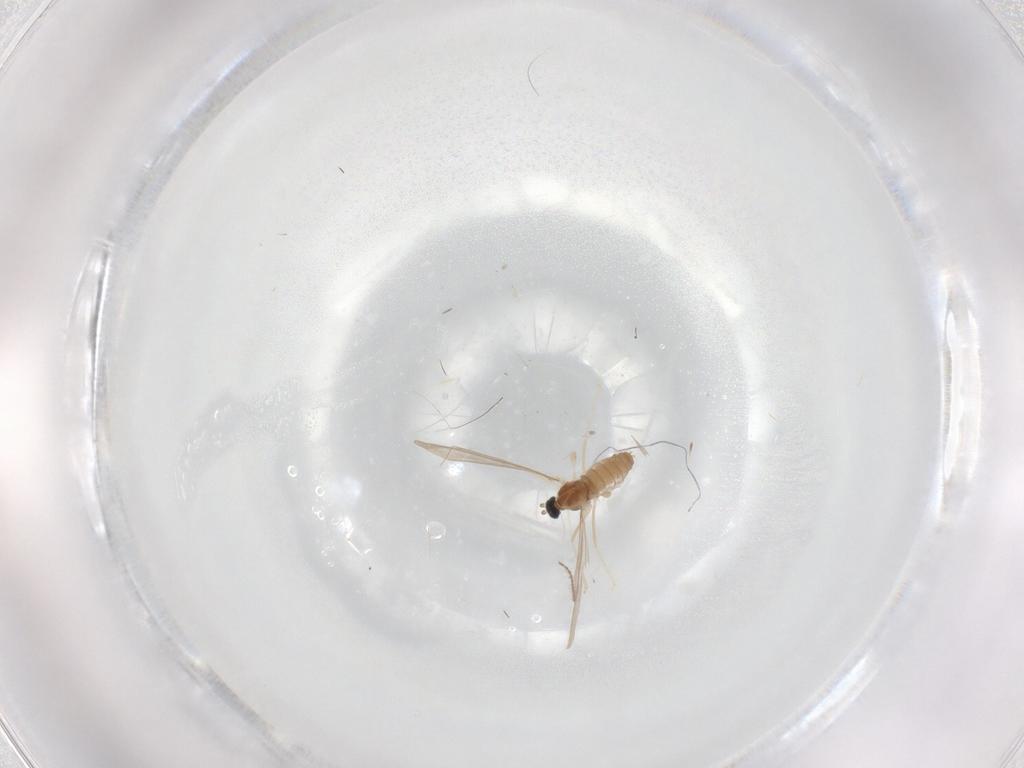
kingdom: Animalia
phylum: Arthropoda
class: Insecta
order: Diptera
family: Cecidomyiidae
